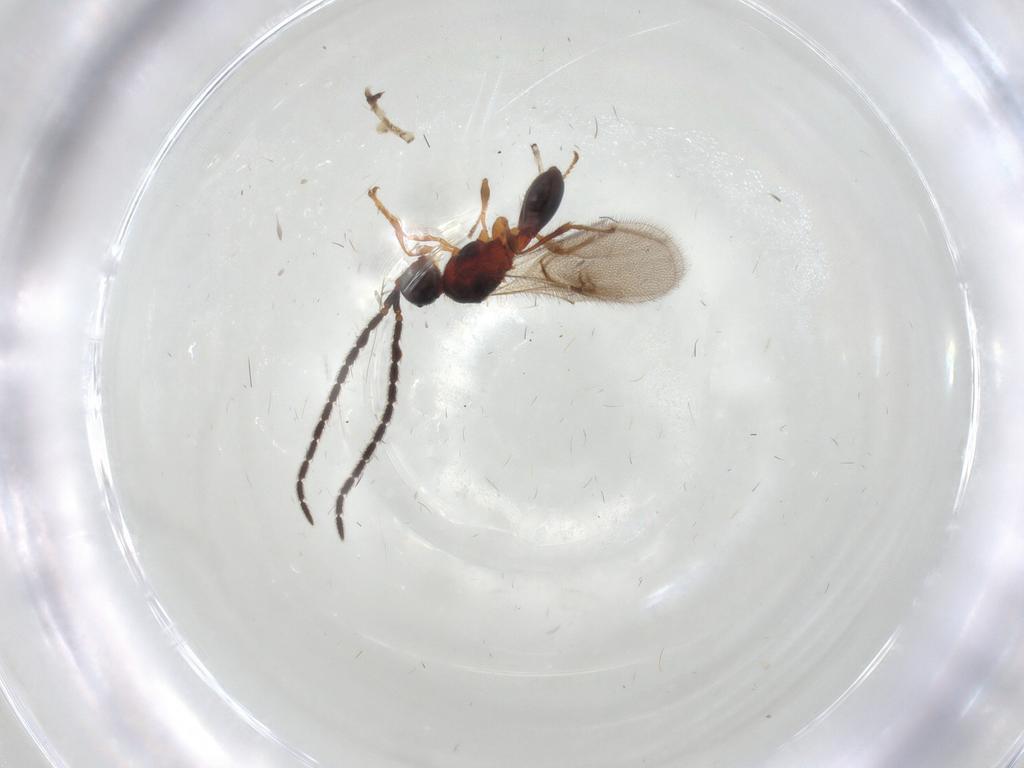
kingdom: Animalia
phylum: Arthropoda
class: Insecta
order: Hymenoptera
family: Diapriidae
